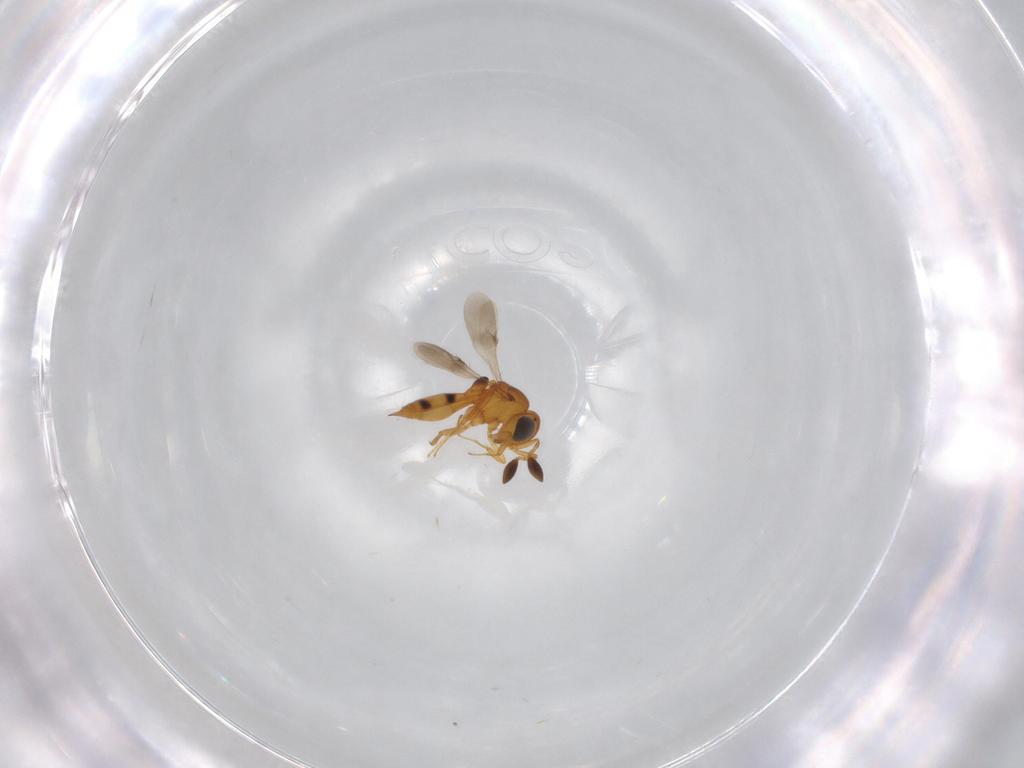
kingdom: Animalia
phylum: Arthropoda
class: Insecta
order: Hymenoptera
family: Scelionidae
